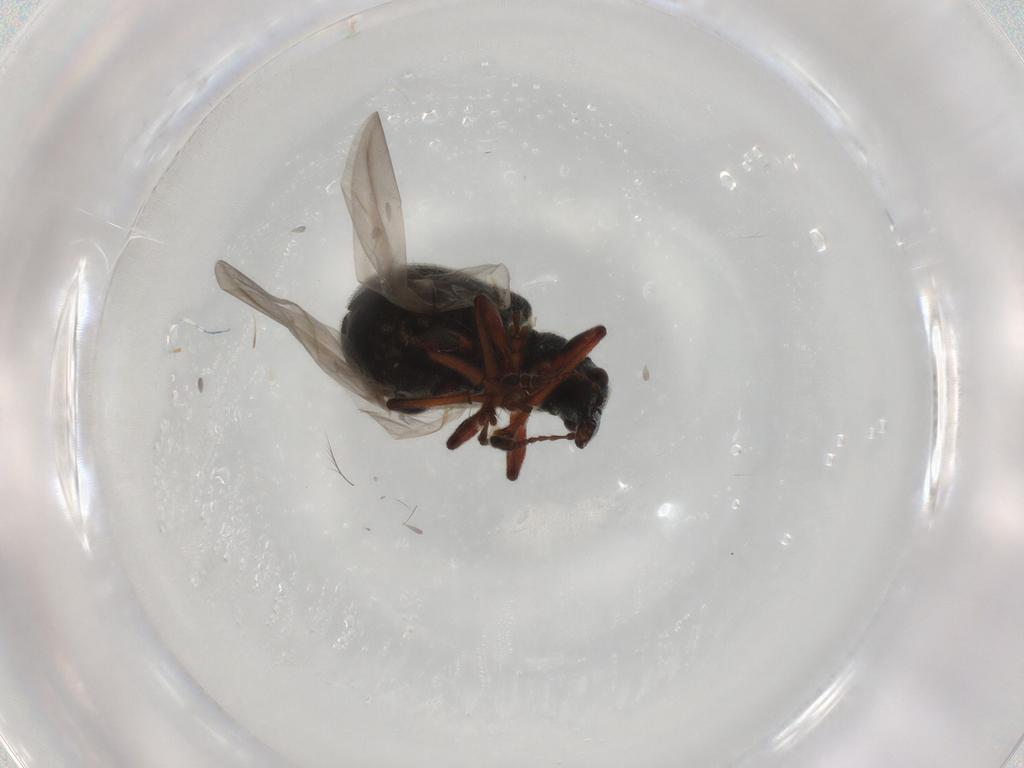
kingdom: Animalia
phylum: Arthropoda
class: Insecta
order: Coleoptera
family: Attelabidae
